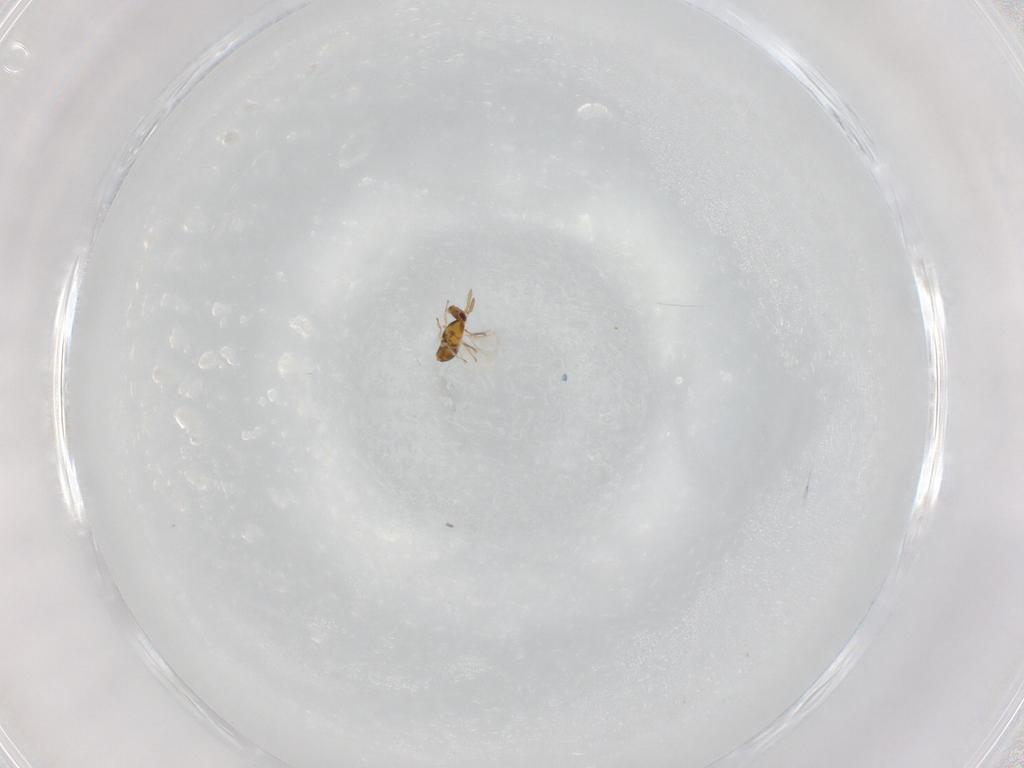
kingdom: Animalia
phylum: Arthropoda
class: Insecta
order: Hymenoptera
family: Aphelinidae
